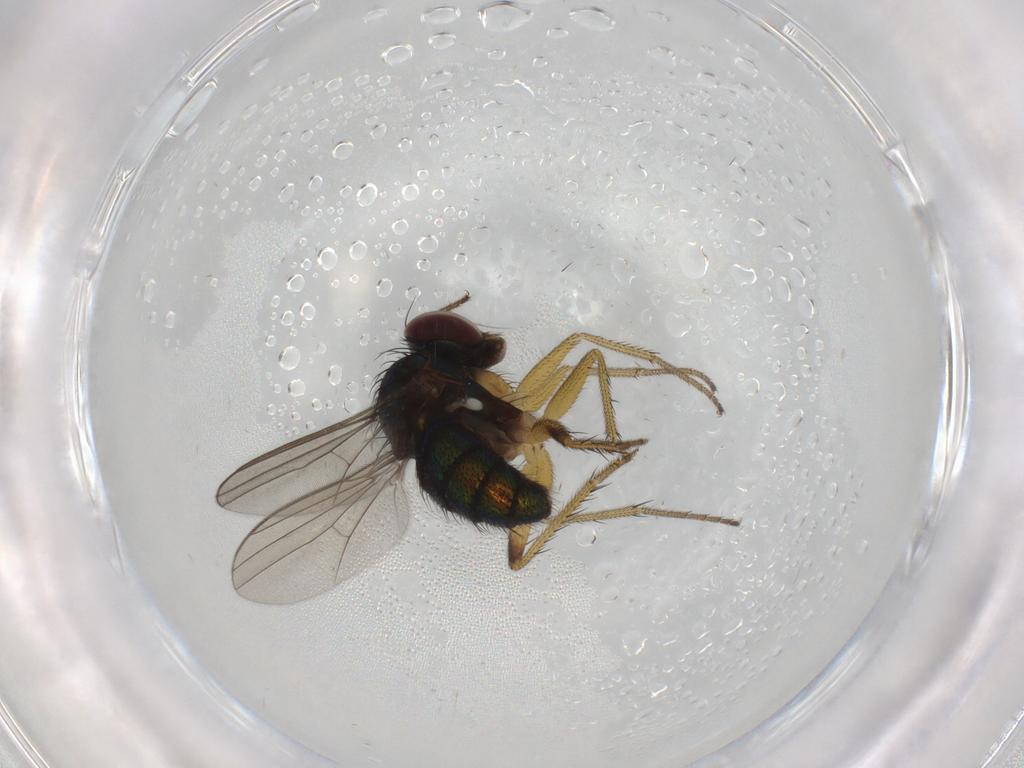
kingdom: Animalia
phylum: Arthropoda
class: Insecta
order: Diptera
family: Dolichopodidae
